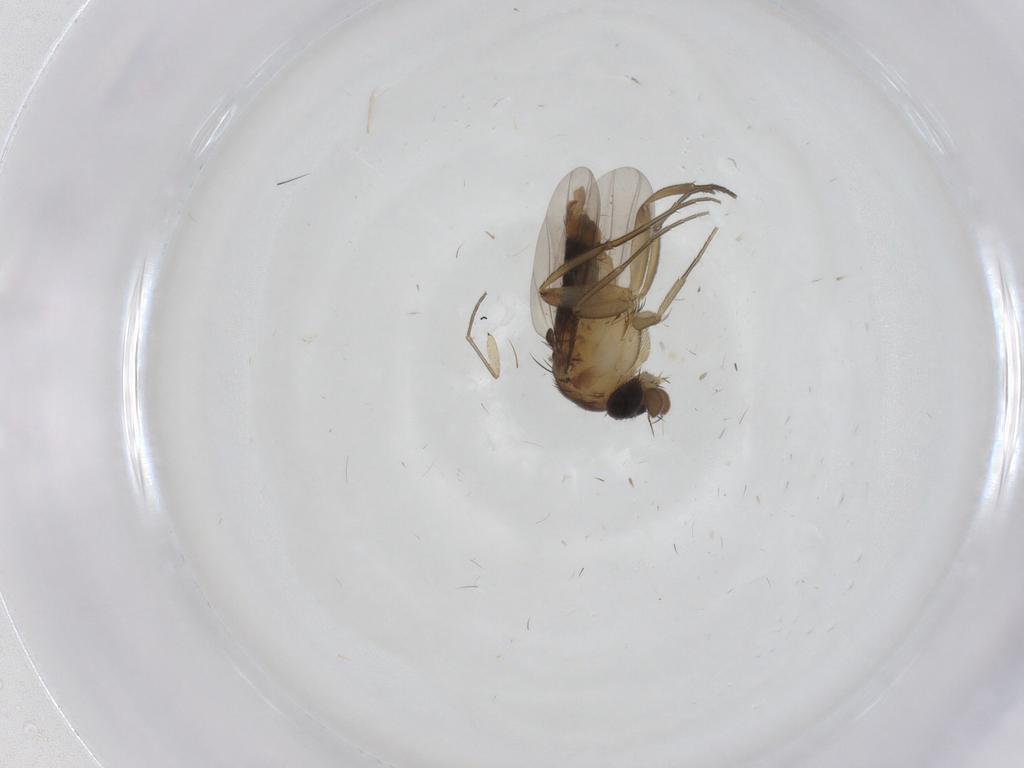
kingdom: Animalia
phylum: Arthropoda
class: Insecta
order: Diptera
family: Phoridae
